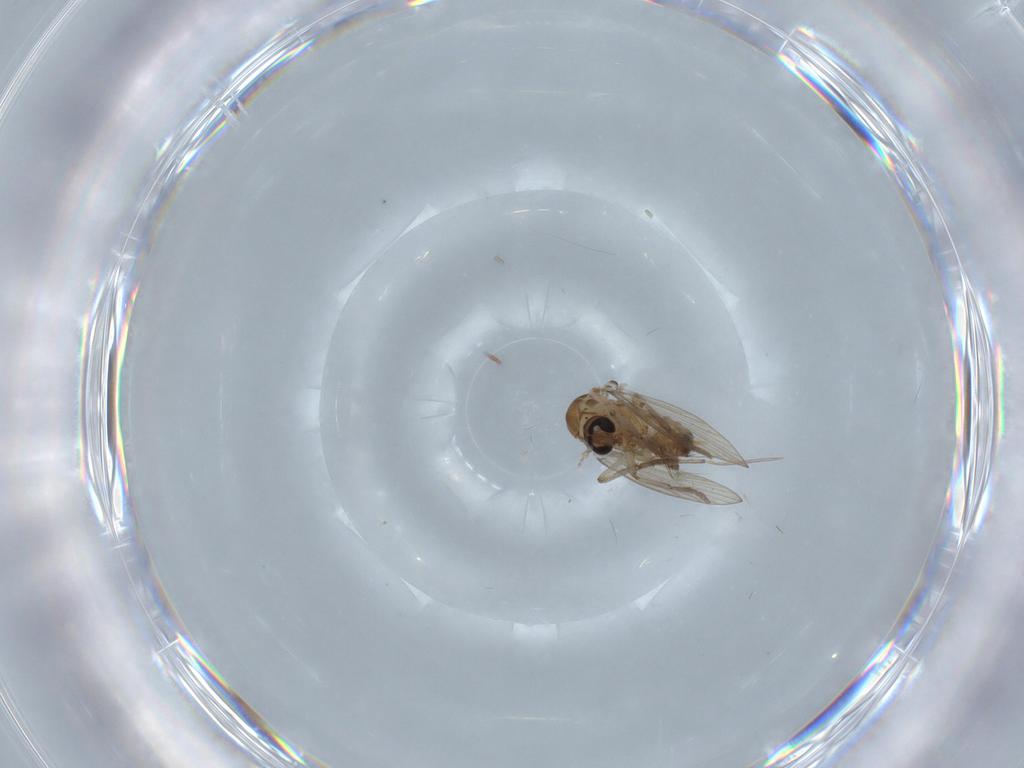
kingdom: Animalia
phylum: Arthropoda
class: Insecta
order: Diptera
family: Psychodidae
